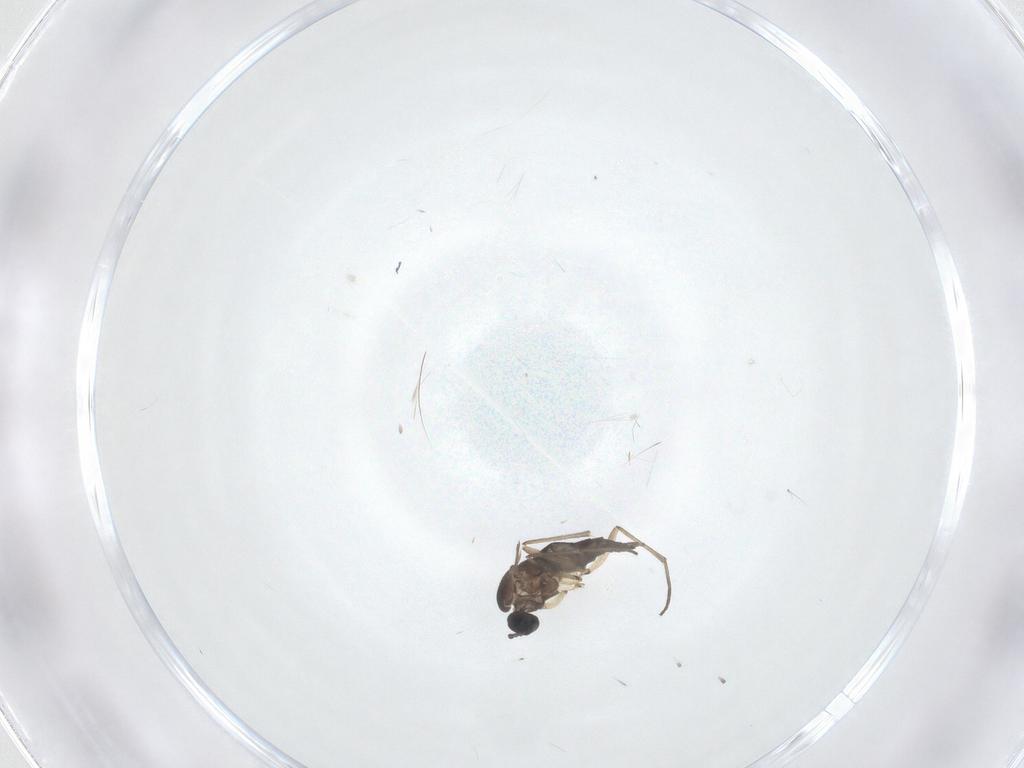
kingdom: Animalia
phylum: Arthropoda
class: Insecta
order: Diptera
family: Sciaridae
